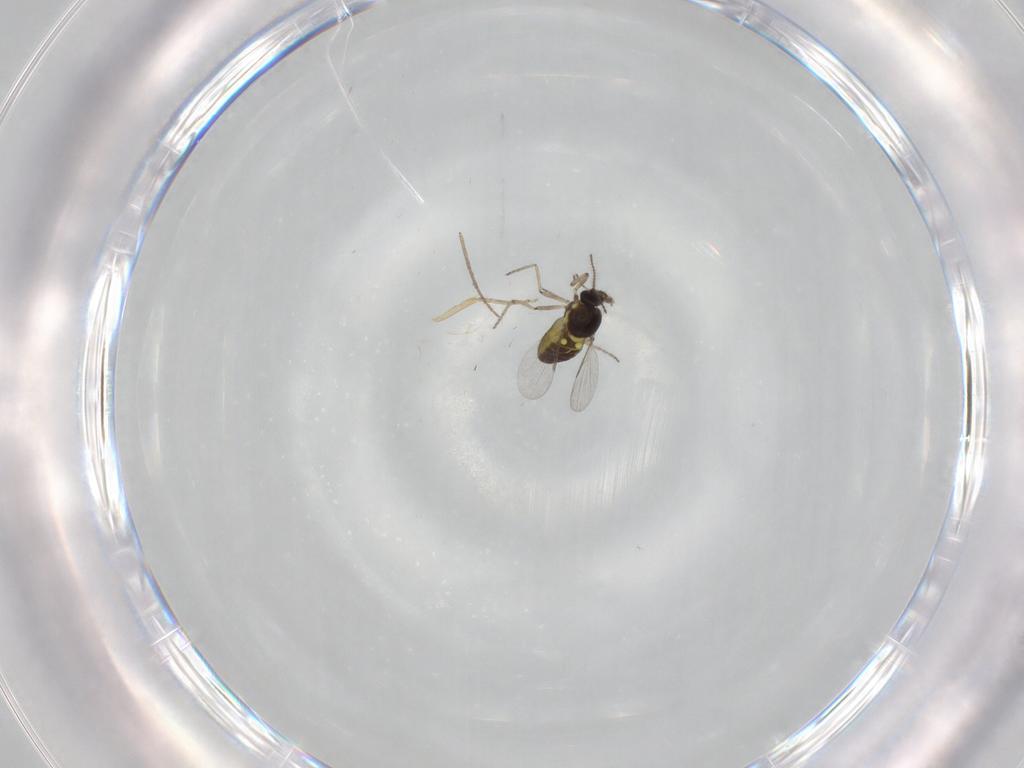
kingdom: Animalia
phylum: Arthropoda
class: Insecta
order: Diptera
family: Ceratopogonidae
